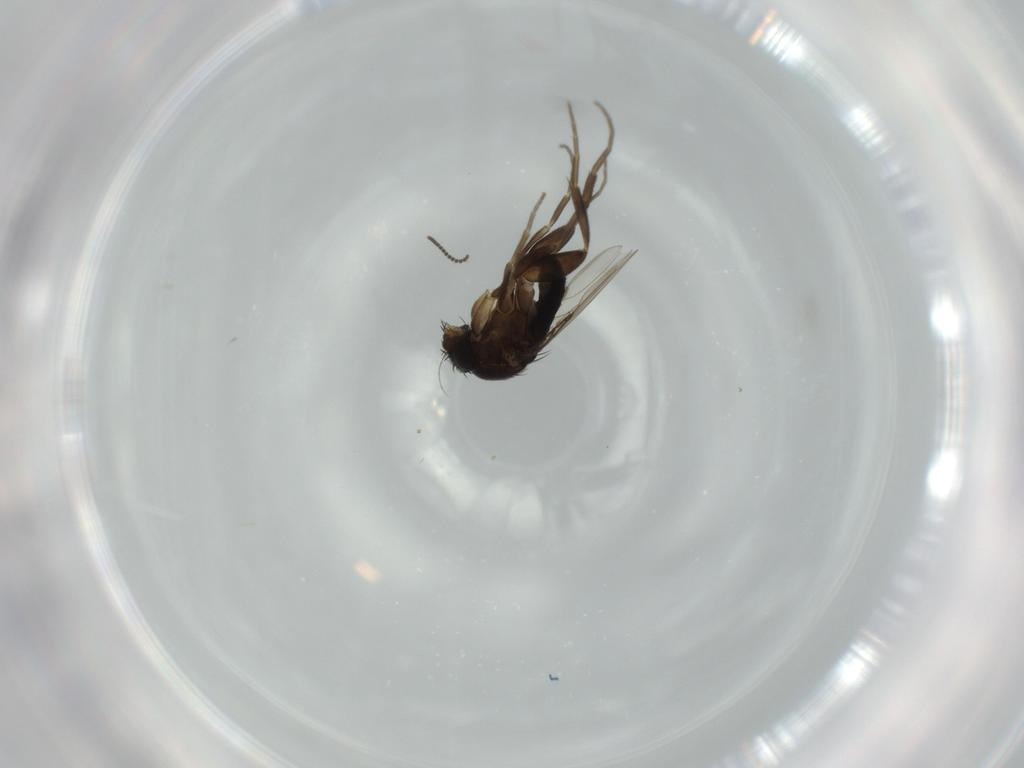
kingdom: Animalia
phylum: Arthropoda
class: Insecta
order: Diptera
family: Phoridae
